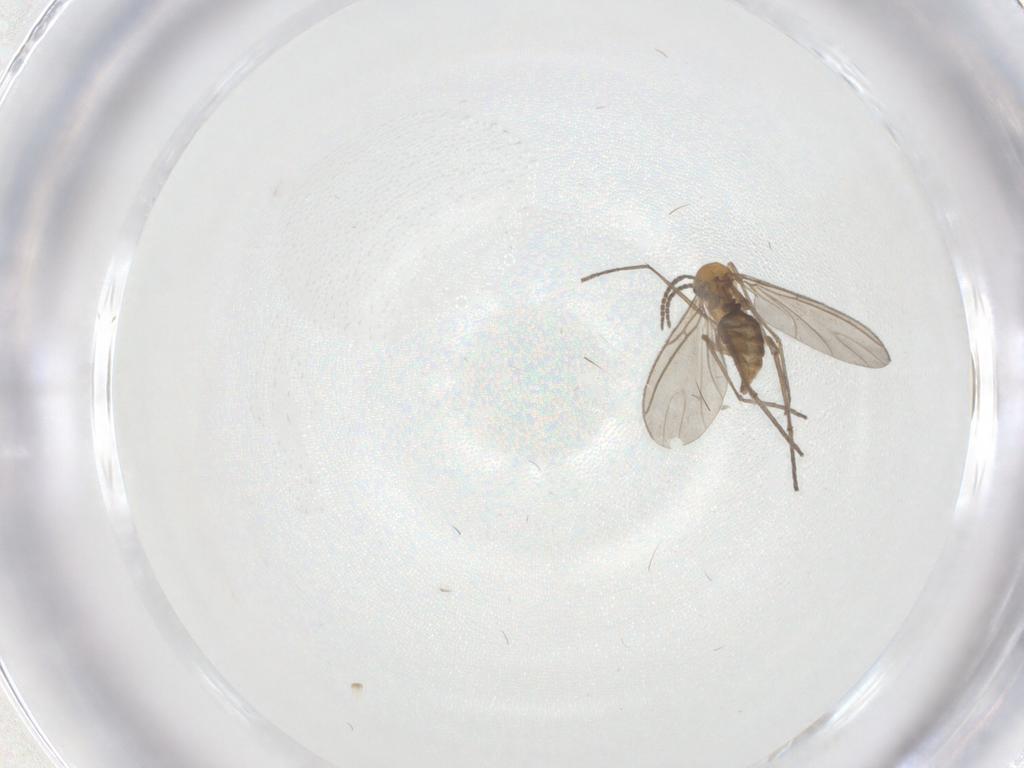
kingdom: Animalia
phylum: Arthropoda
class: Insecta
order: Diptera
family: Sciaridae
